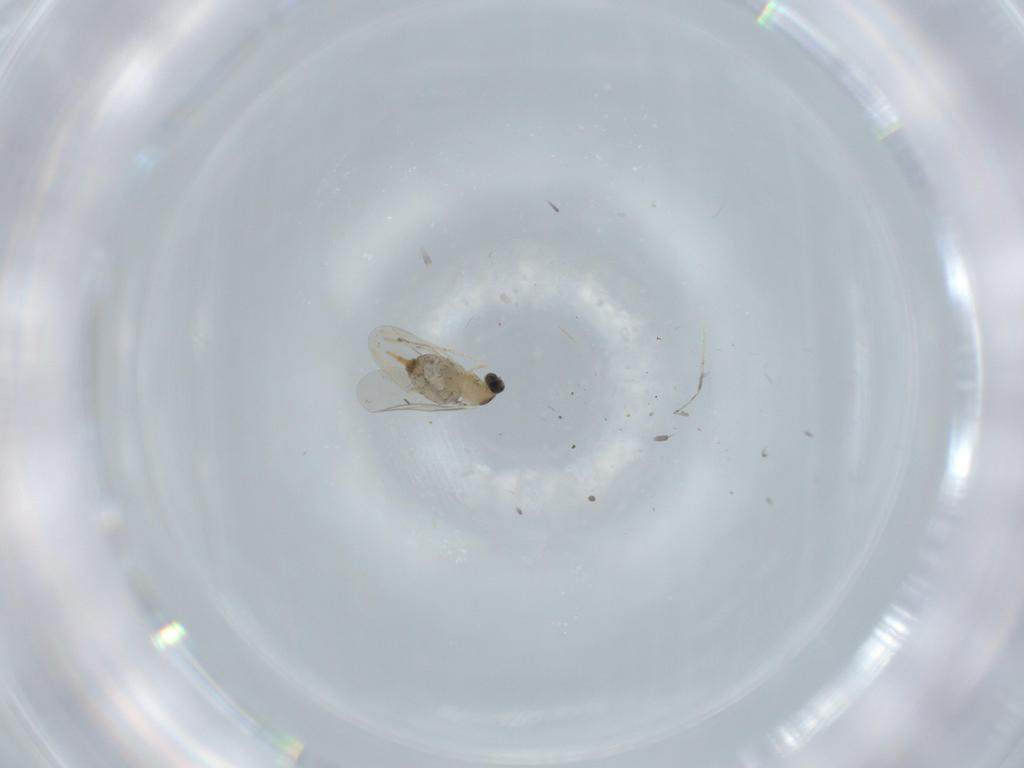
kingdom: Animalia
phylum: Arthropoda
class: Insecta
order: Diptera
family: Cecidomyiidae
